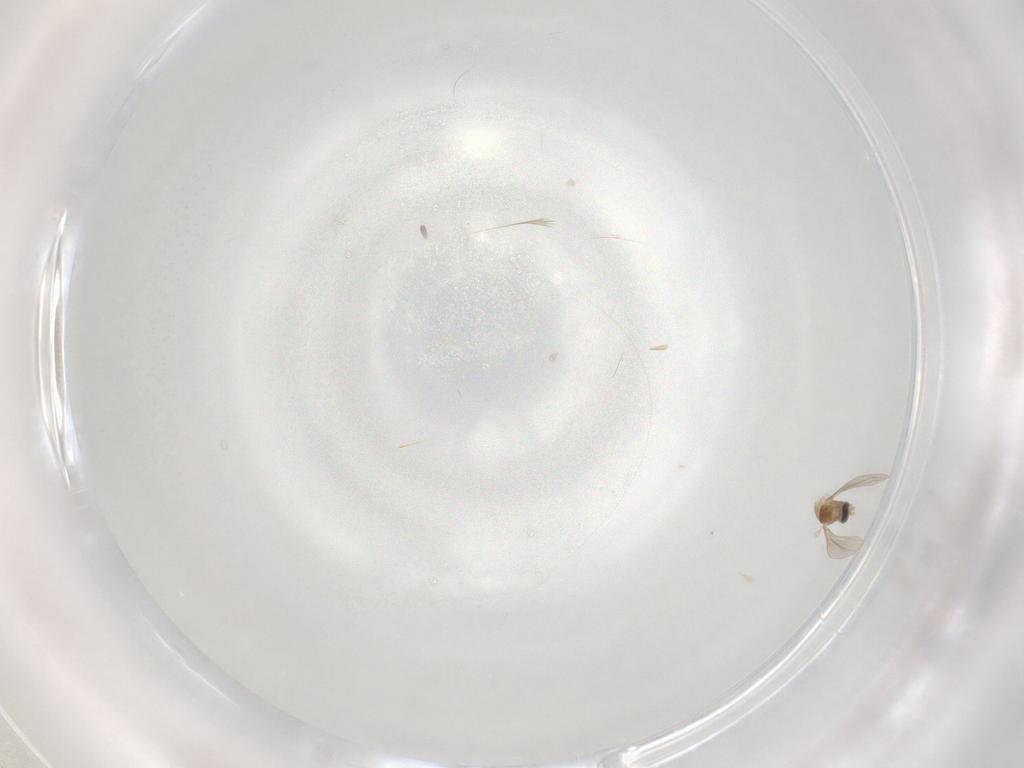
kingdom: Animalia
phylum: Arthropoda
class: Insecta
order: Diptera
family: Cecidomyiidae
